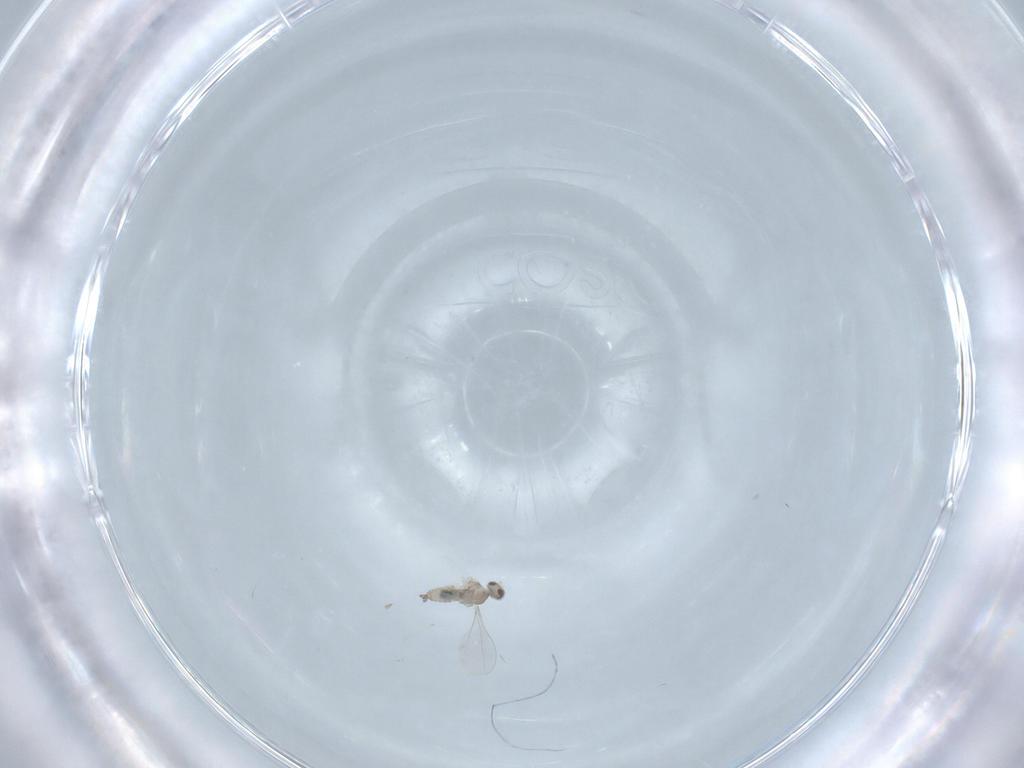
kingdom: Animalia
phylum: Arthropoda
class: Insecta
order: Diptera
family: Cecidomyiidae
